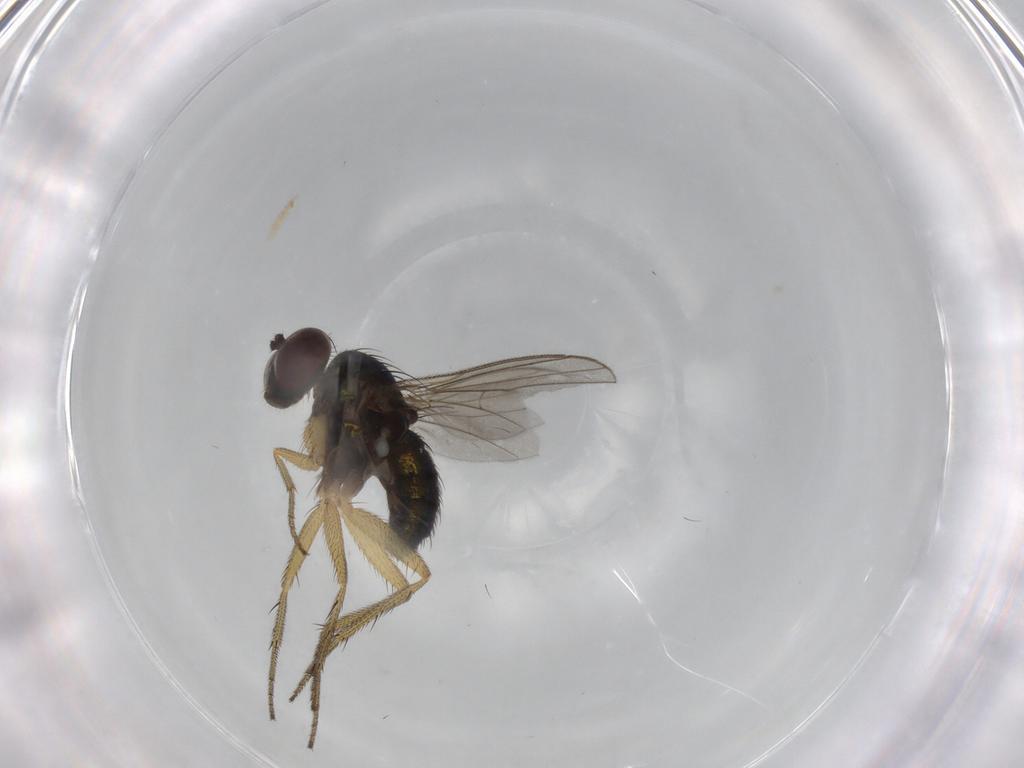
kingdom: Animalia
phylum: Arthropoda
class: Insecta
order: Diptera
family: Dolichopodidae
